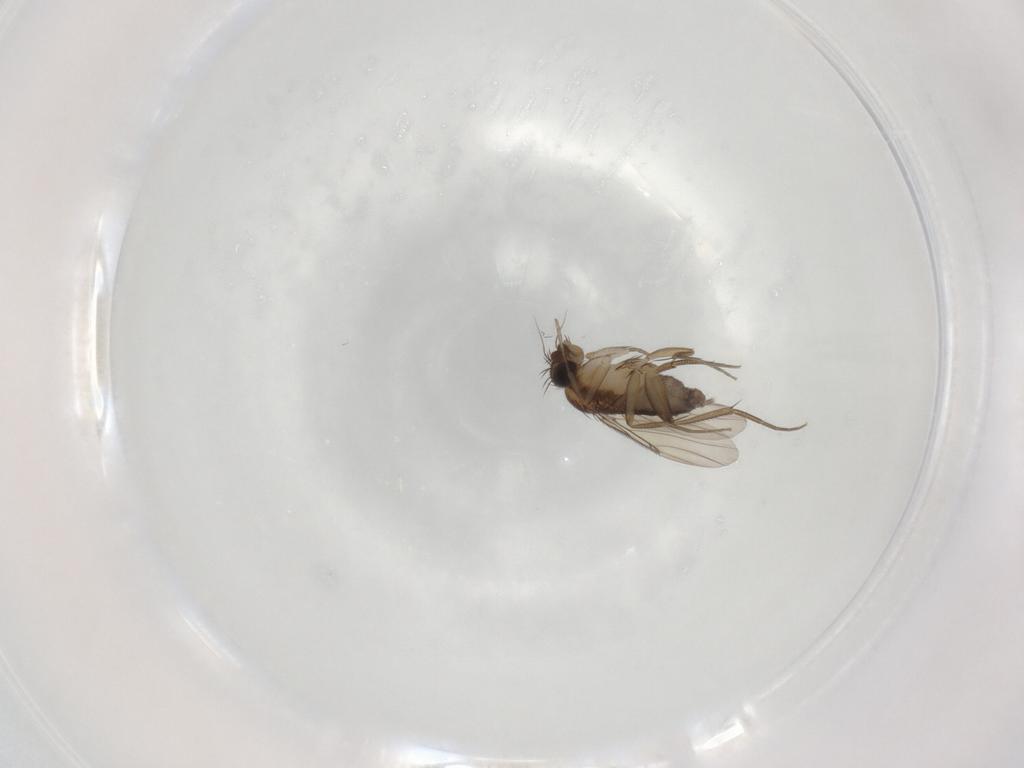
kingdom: Animalia
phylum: Arthropoda
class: Insecta
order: Diptera
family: Phoridae
